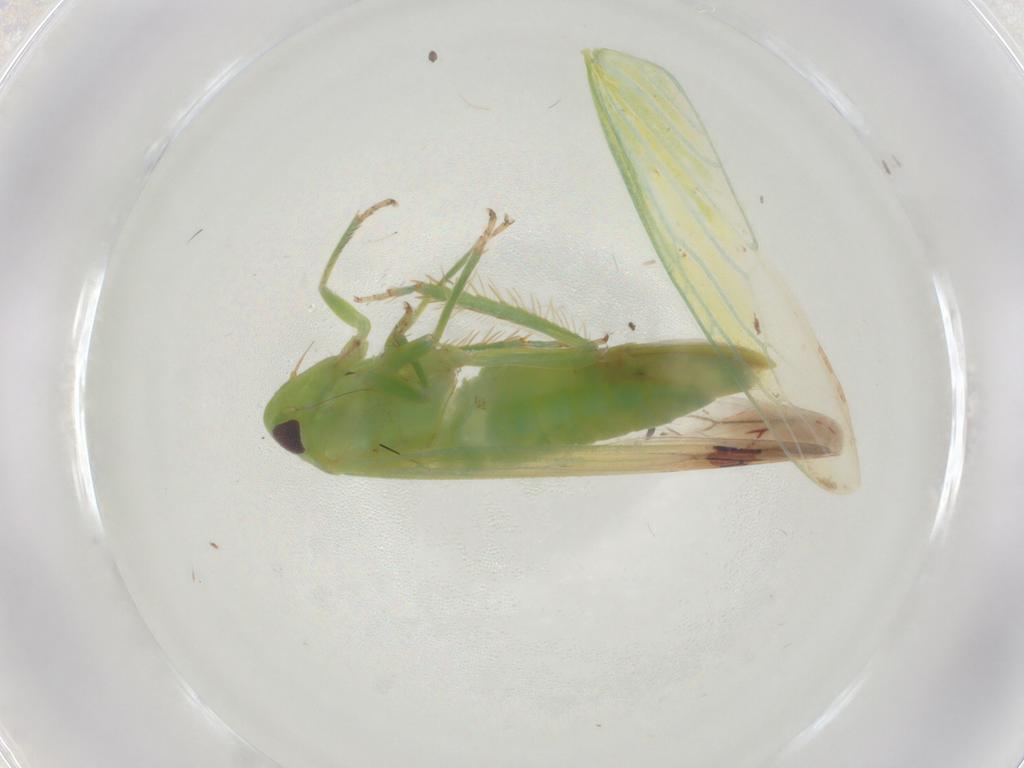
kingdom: Animalia
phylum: Arthropoda
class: Insecta
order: Hemiptera
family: Cicadellidae
